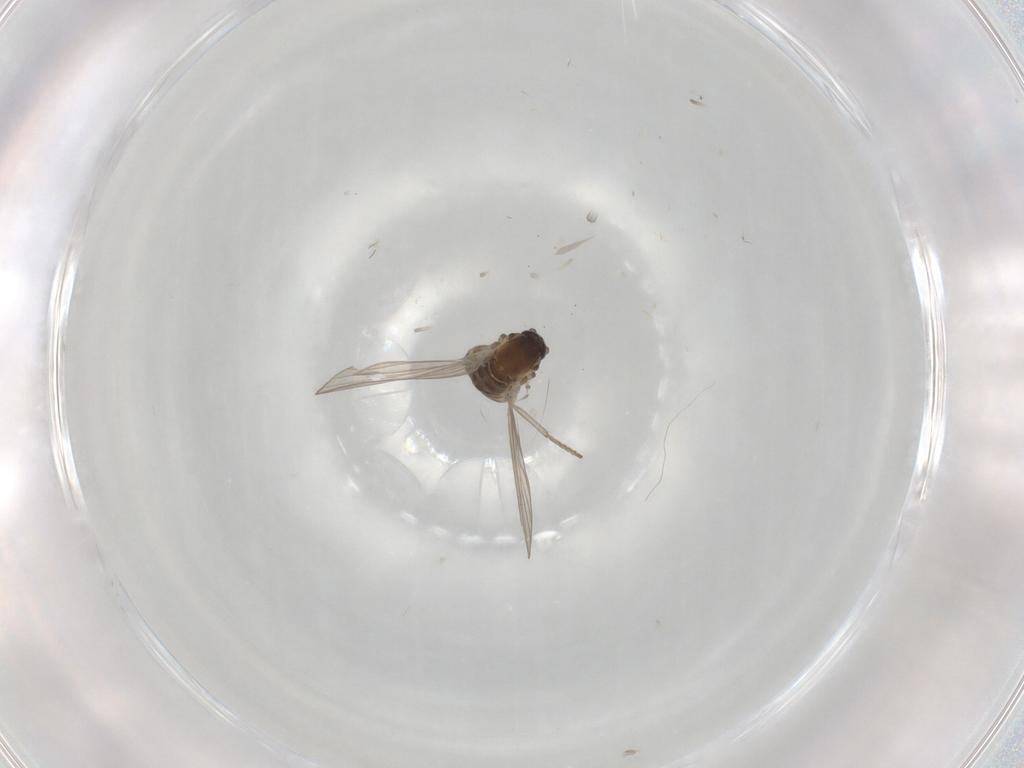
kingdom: Animalia
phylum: Arthropoda
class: Insecta
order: Diptera
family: Psychodidae
